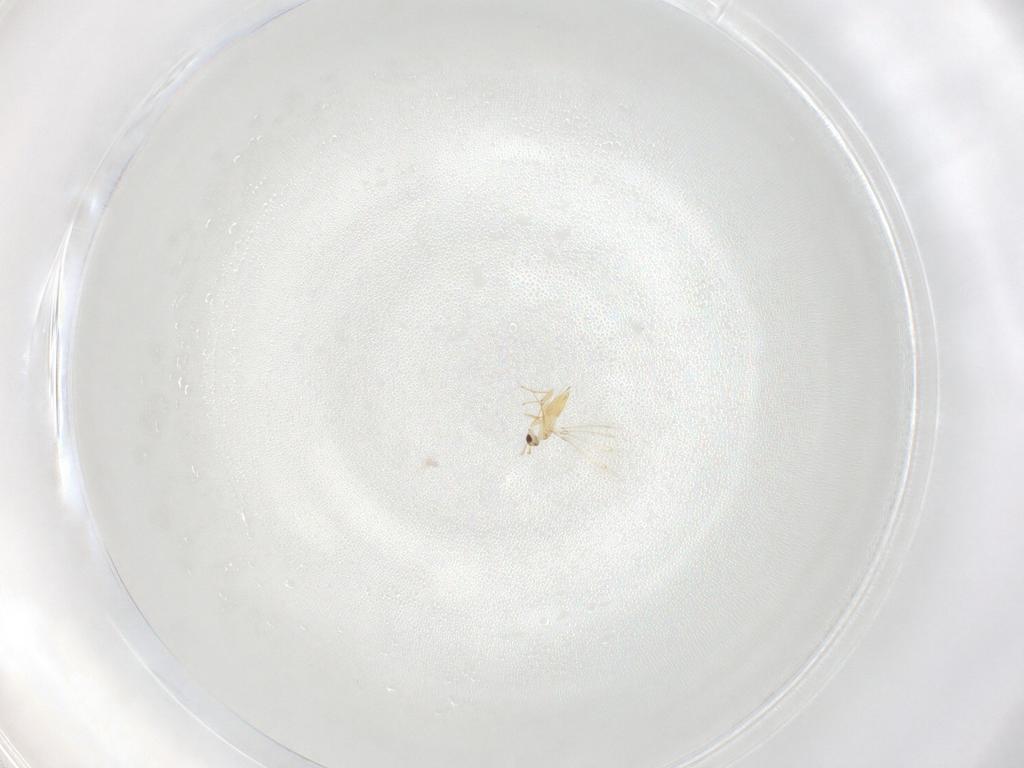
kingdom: Animalia
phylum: Arthropoda
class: Insecta
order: Hymenoptera
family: Mymaridae
